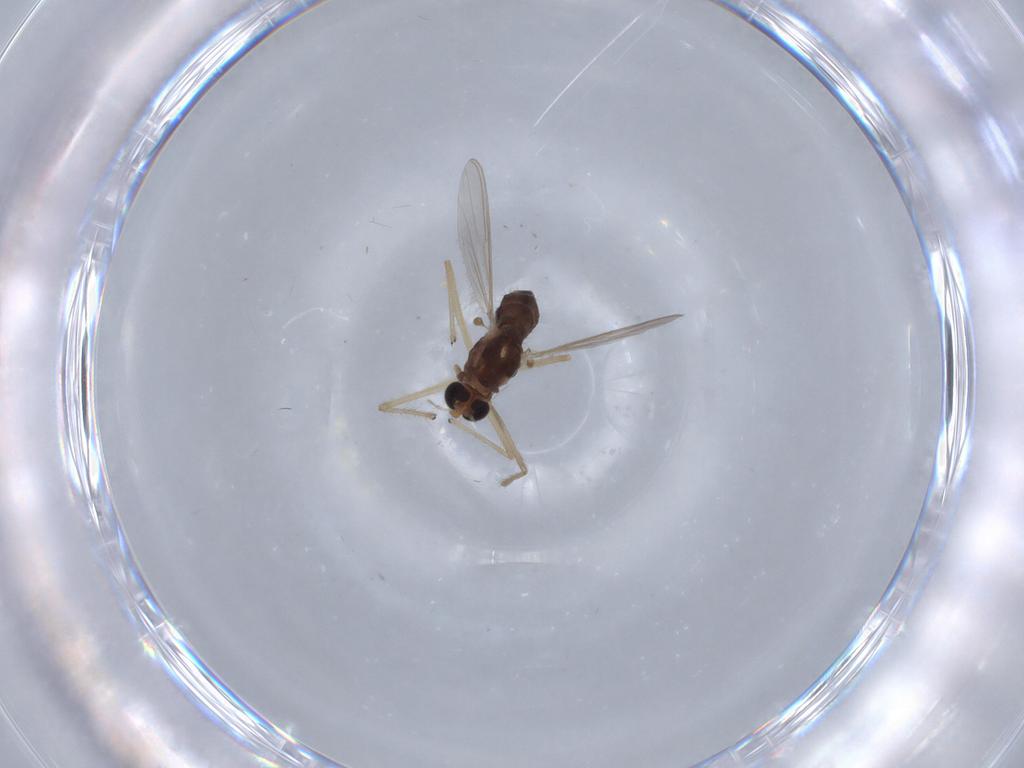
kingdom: Animalia
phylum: Arthropoda
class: Insecta
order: Diptera
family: Chironomidae
